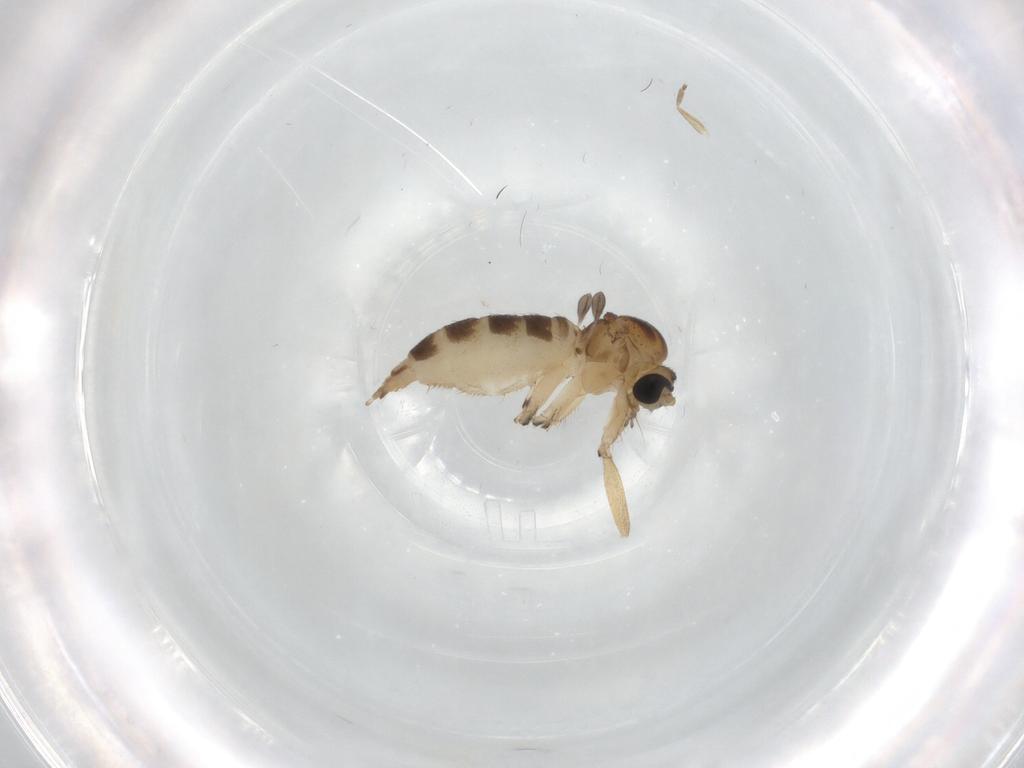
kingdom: Animalia
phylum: Arthropoda
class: Insecta
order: Diptera
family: Sciaridae
